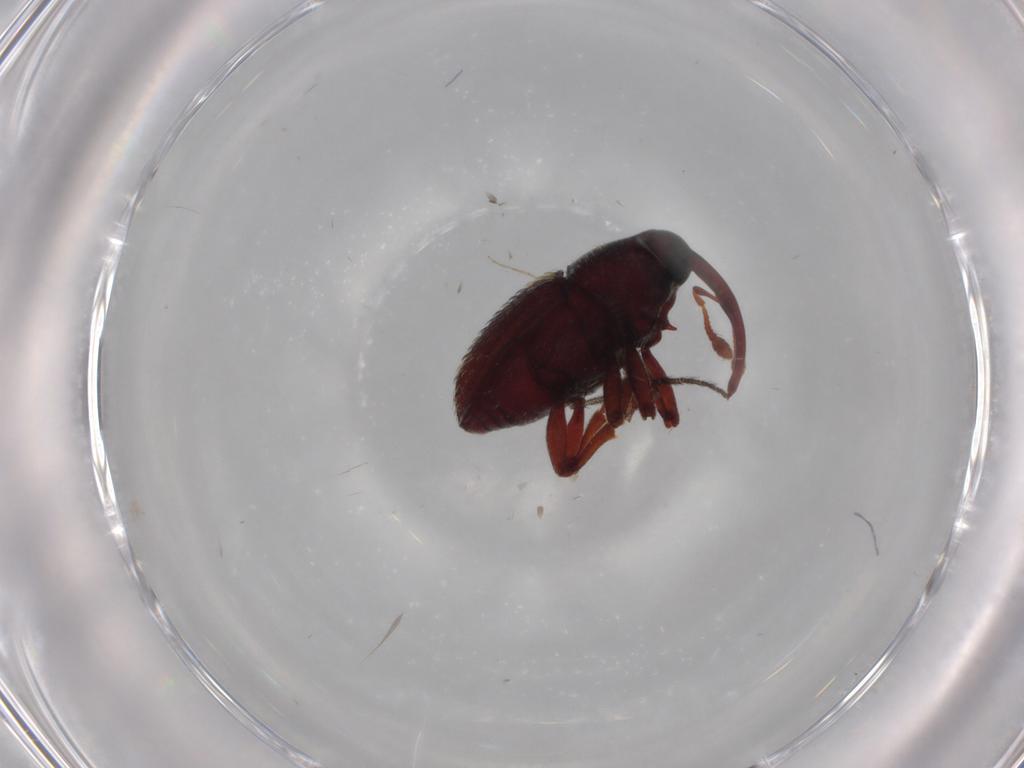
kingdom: Animalia
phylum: Arthropoda
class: Insecta
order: Coleoptera
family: Curculionidae
